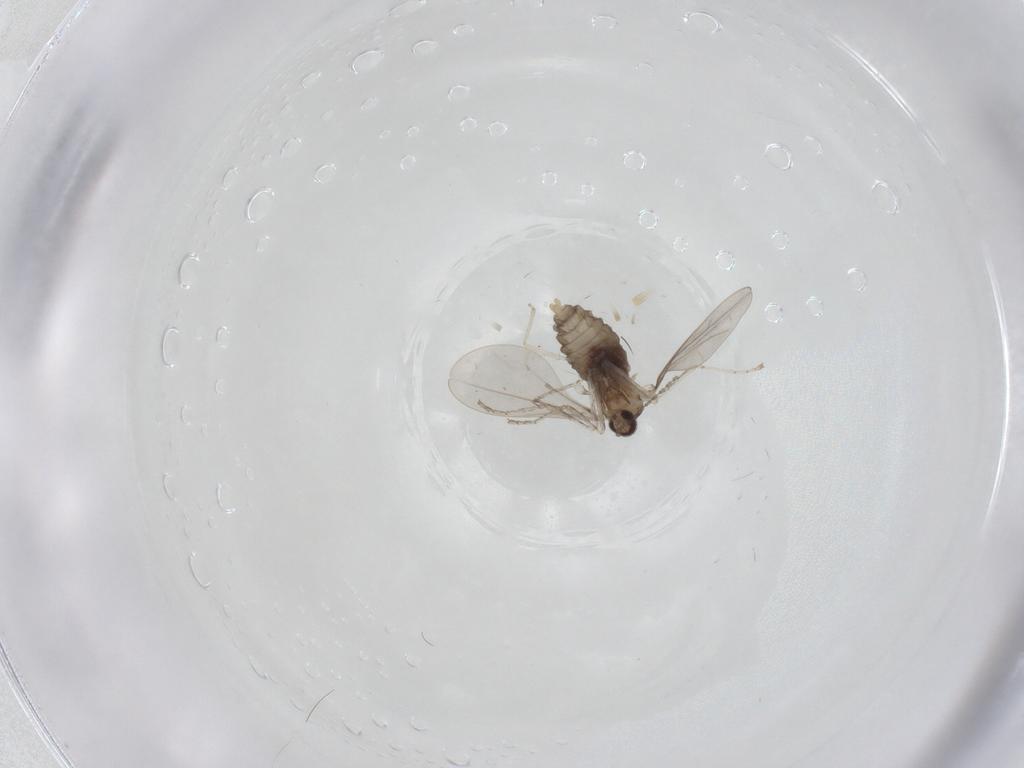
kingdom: Animalia
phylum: Arthropoda
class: Insecta
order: Diptera
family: Cecidomyiidae
